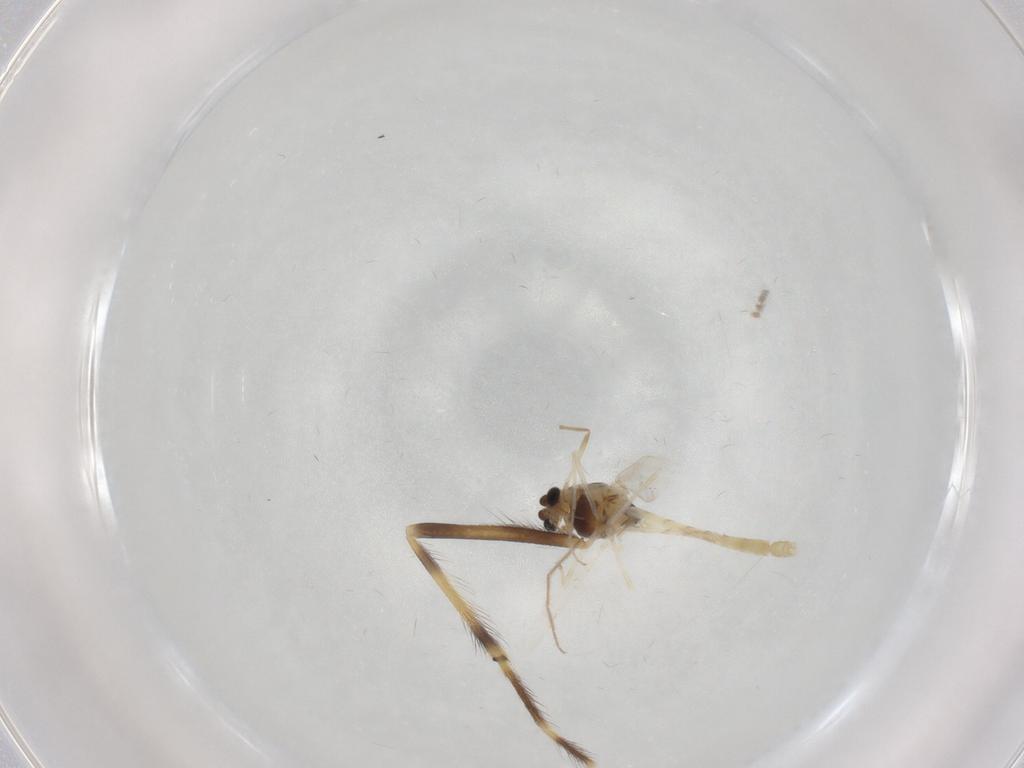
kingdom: Animalia
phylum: Arthropoda
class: Insecta
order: Diptera
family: Chironomidae
